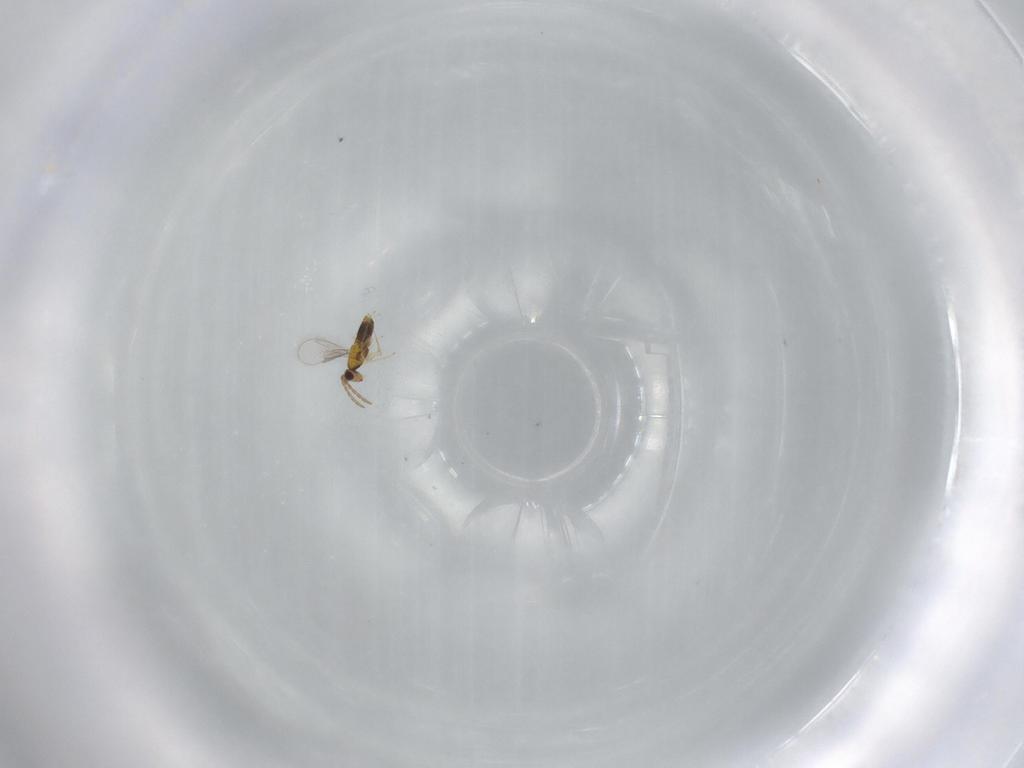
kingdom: Animalia
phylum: Arthropoda
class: Insecta
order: Hymenoptera
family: Aphelinidae
